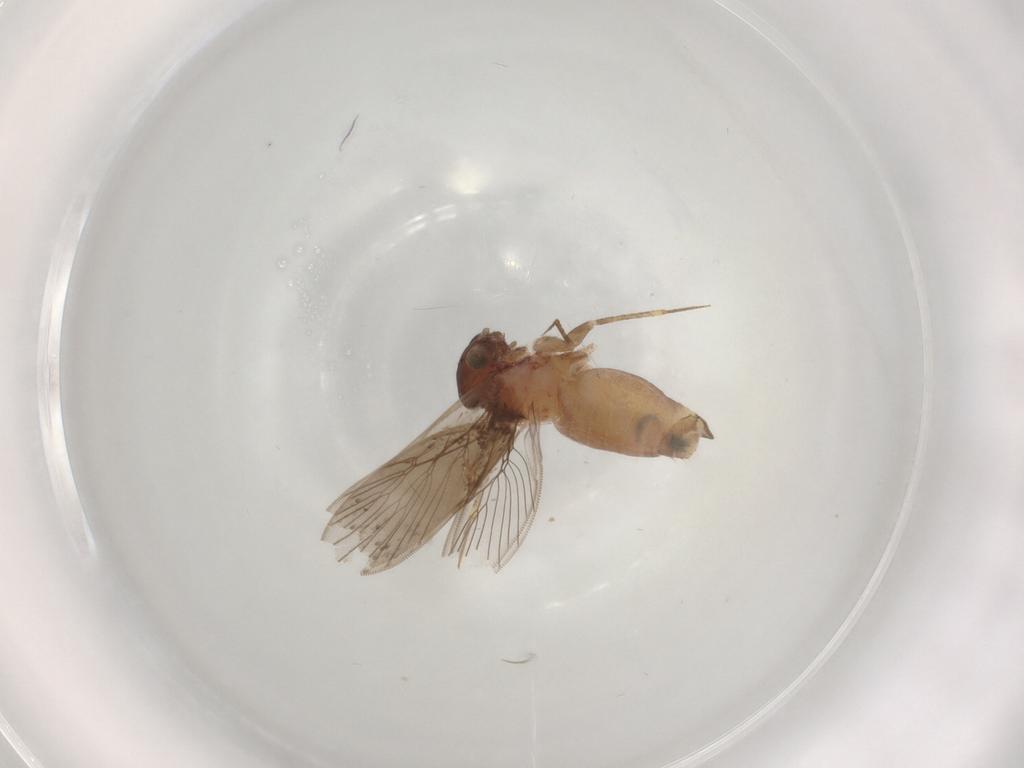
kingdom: Animalia
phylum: Arthropoda
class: Insecta
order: Psocodea
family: Lepidopsocidae
